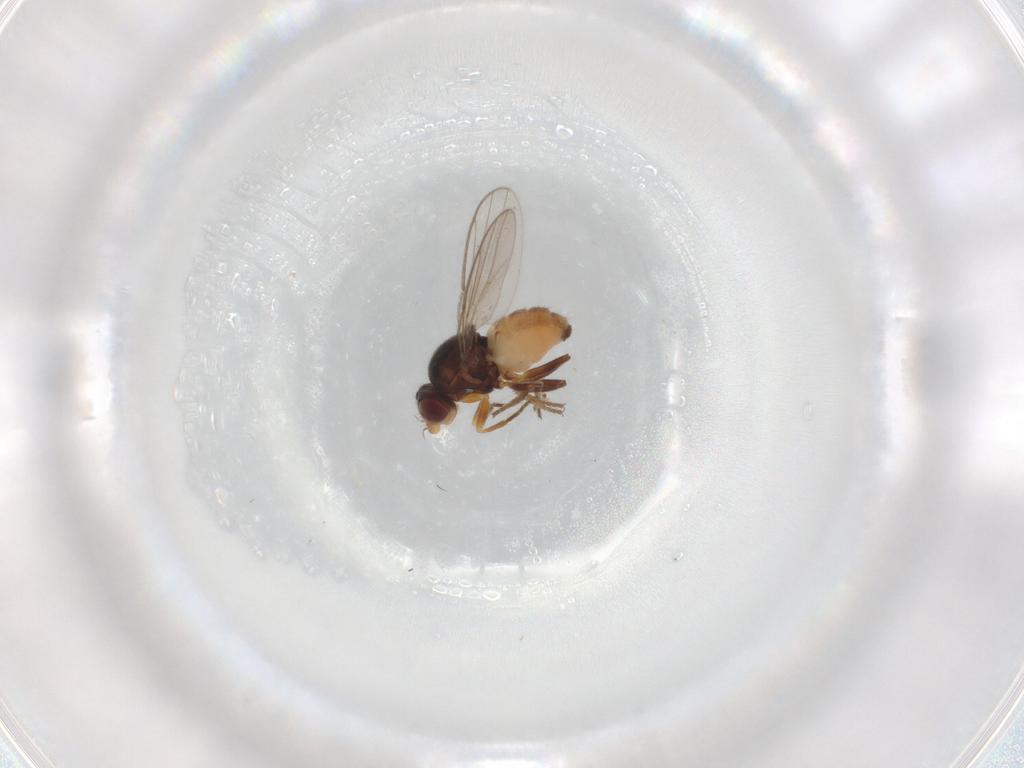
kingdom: Animalia
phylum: Arthropoda
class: Insecta
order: Diptera
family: Chloropidae
